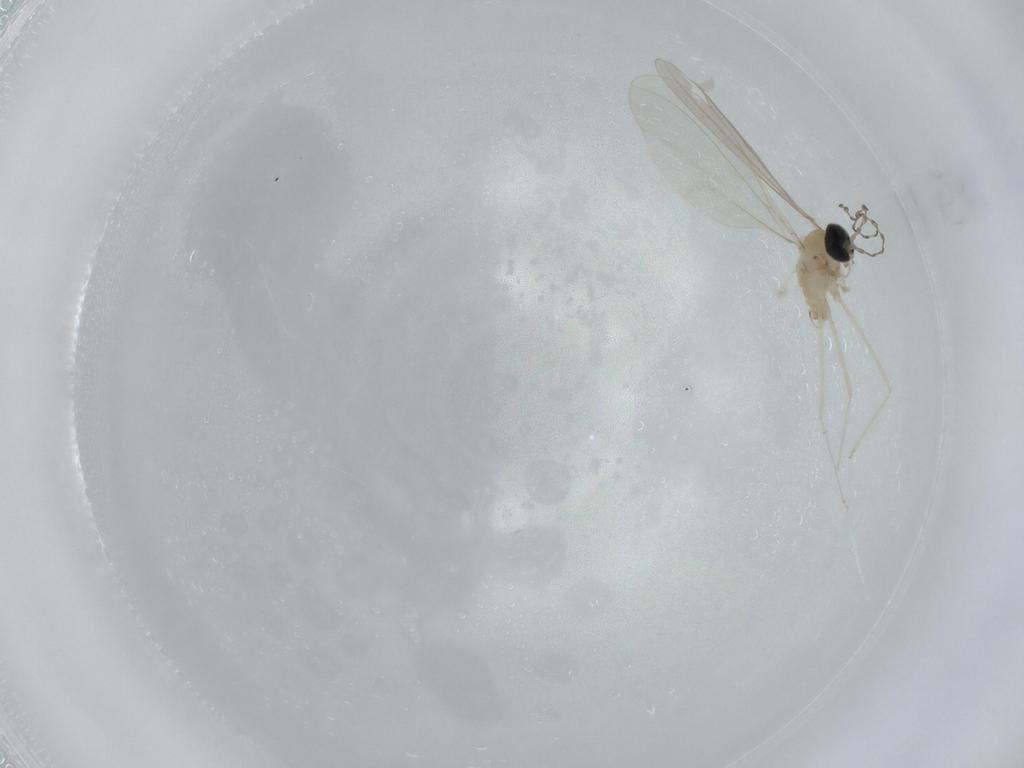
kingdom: Animalia
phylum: Arthropoda
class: Insecta
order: Diptera
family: Cecidomyiidae
